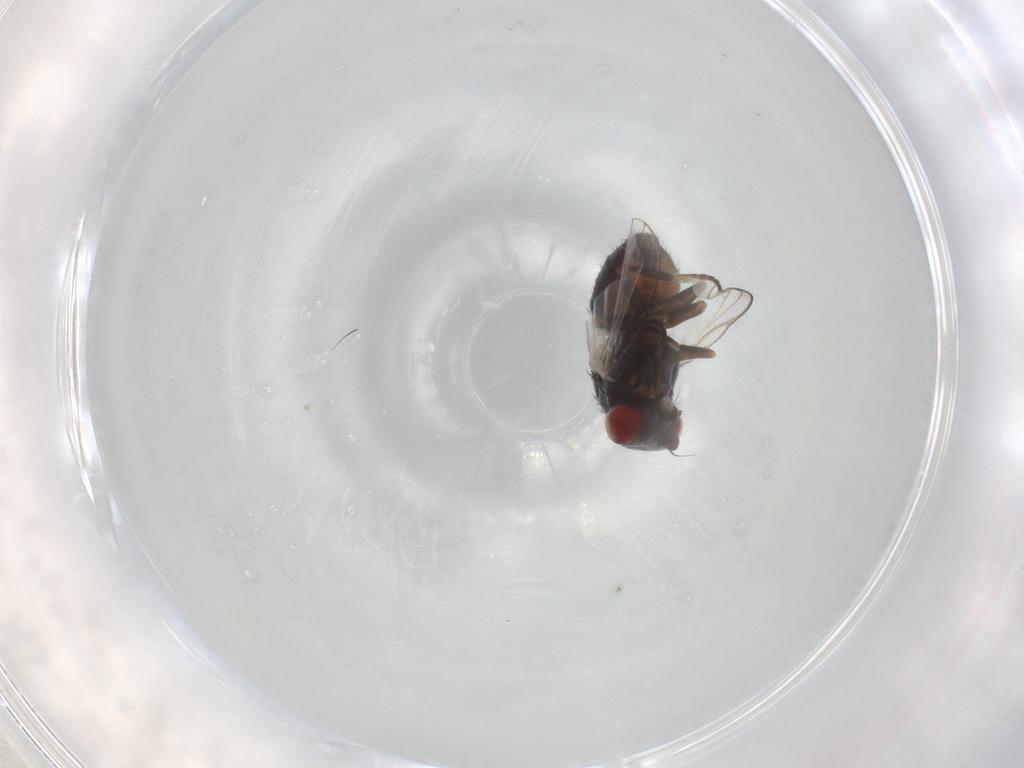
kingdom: Animalia
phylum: Arthropoda
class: Insecta
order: Diptera
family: Chamaemyiidae
